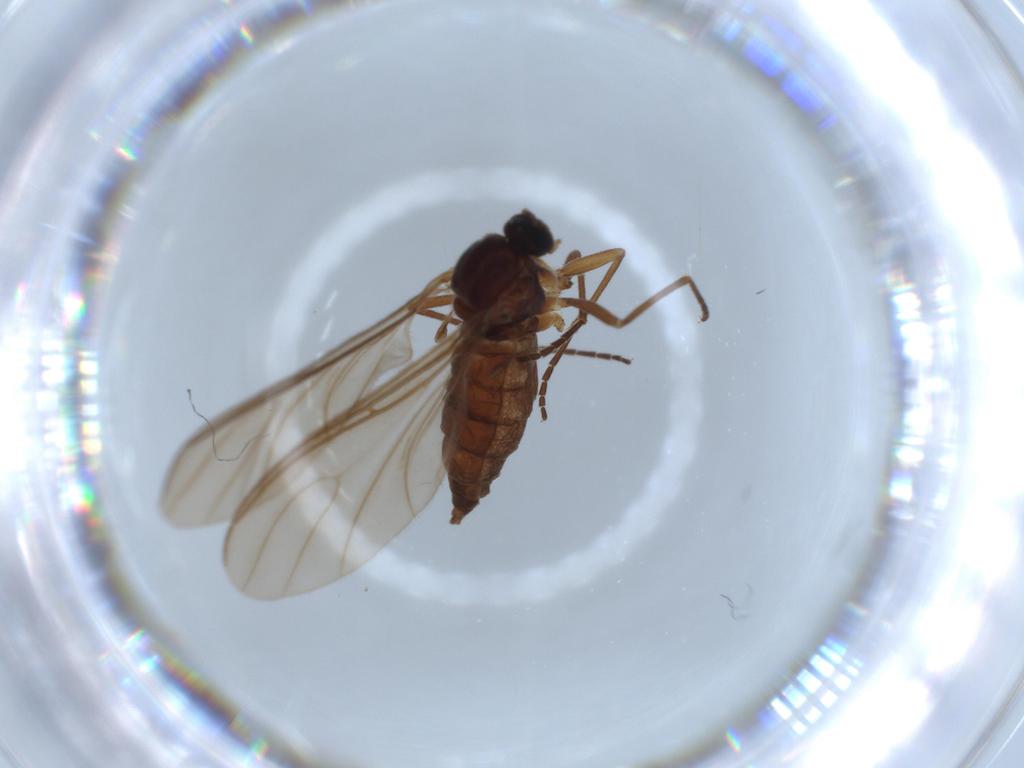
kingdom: Animalia
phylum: Arthropoda
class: Insecta
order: Diptera
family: Sciaridae
